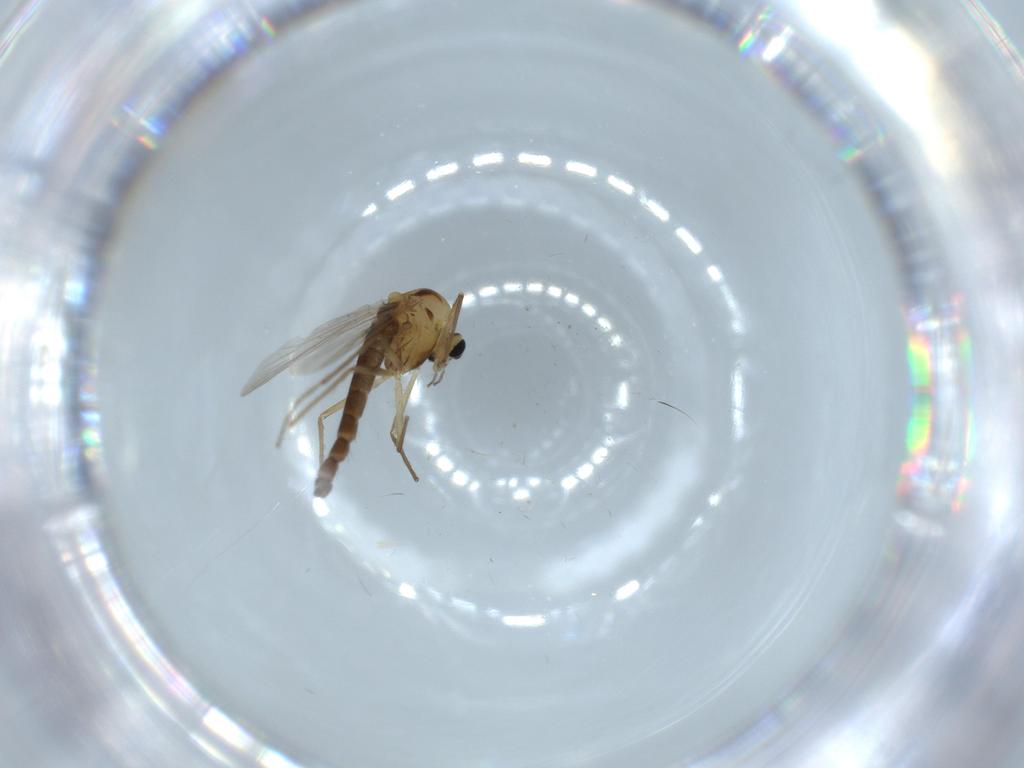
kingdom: Animalia
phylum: Arthropoda
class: Insecta
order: Diptera
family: Chironomidae
